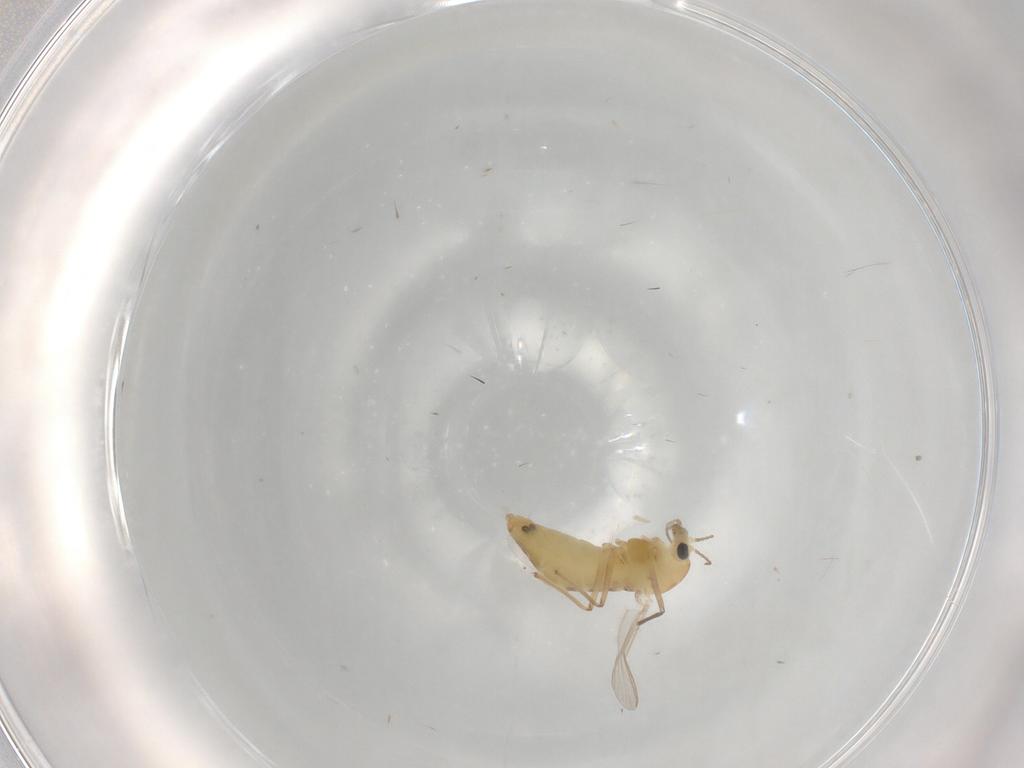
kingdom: Animalia
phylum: Arthropoda
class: Insecta
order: Diptera
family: Chironomidae
